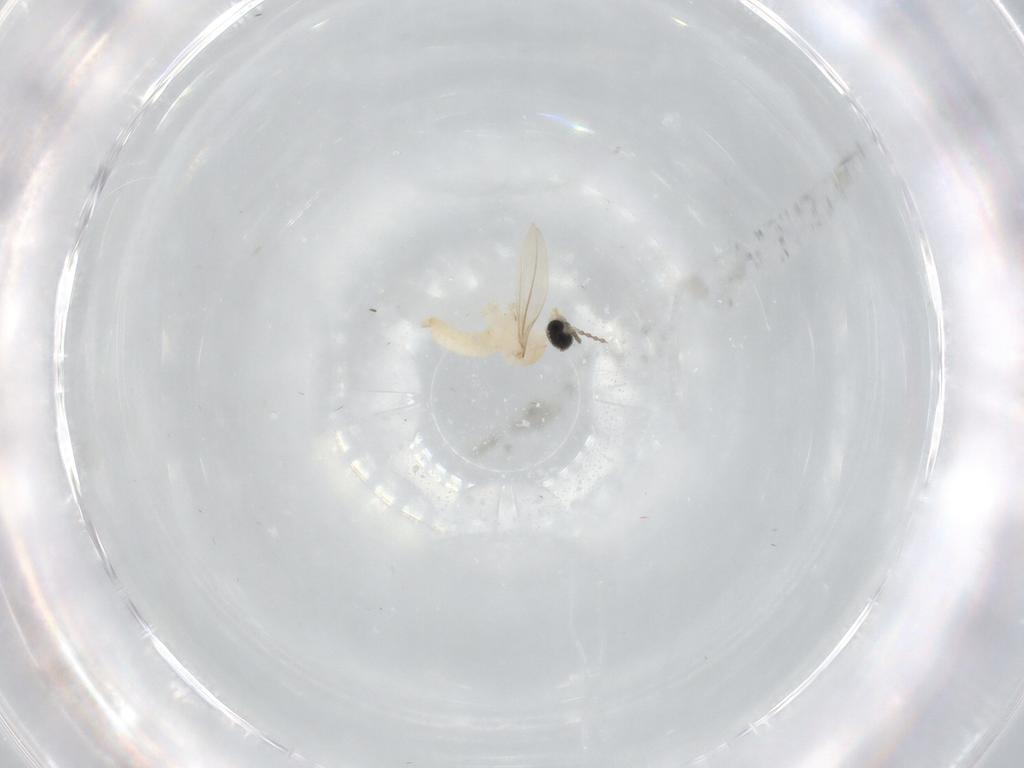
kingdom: Animalia
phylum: Arthropoda
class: Insecta
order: Diptera
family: Cecidomyiidae
